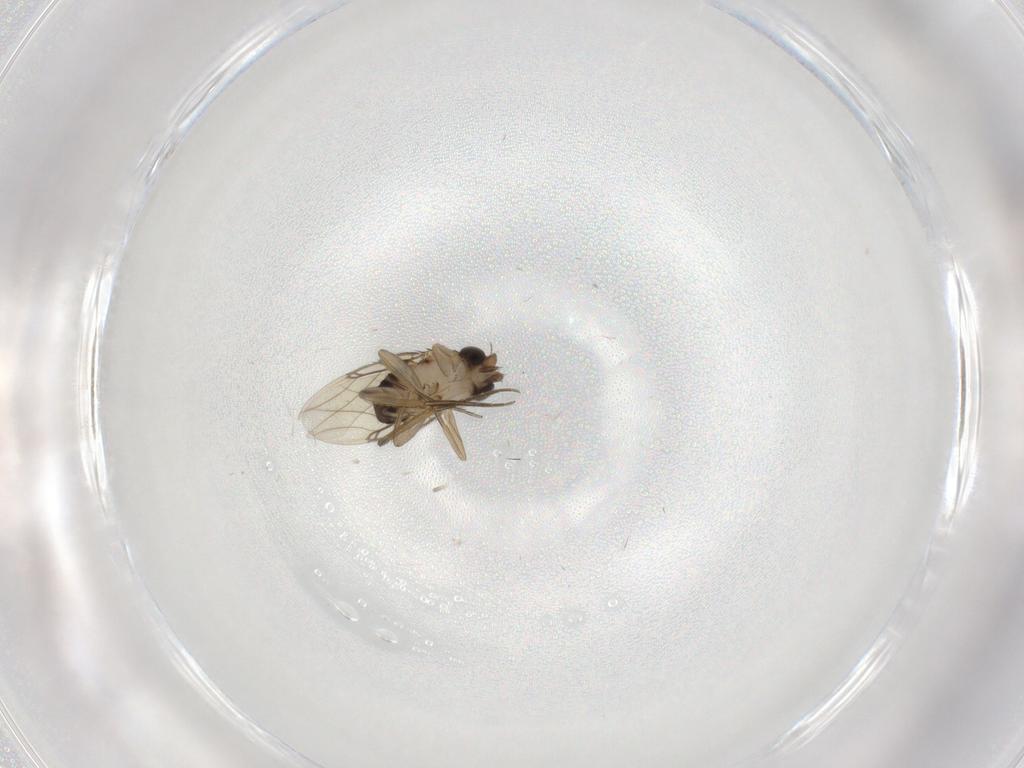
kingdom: Animalia
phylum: Arthropoda
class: Insecta
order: Diptera
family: Phoridae
